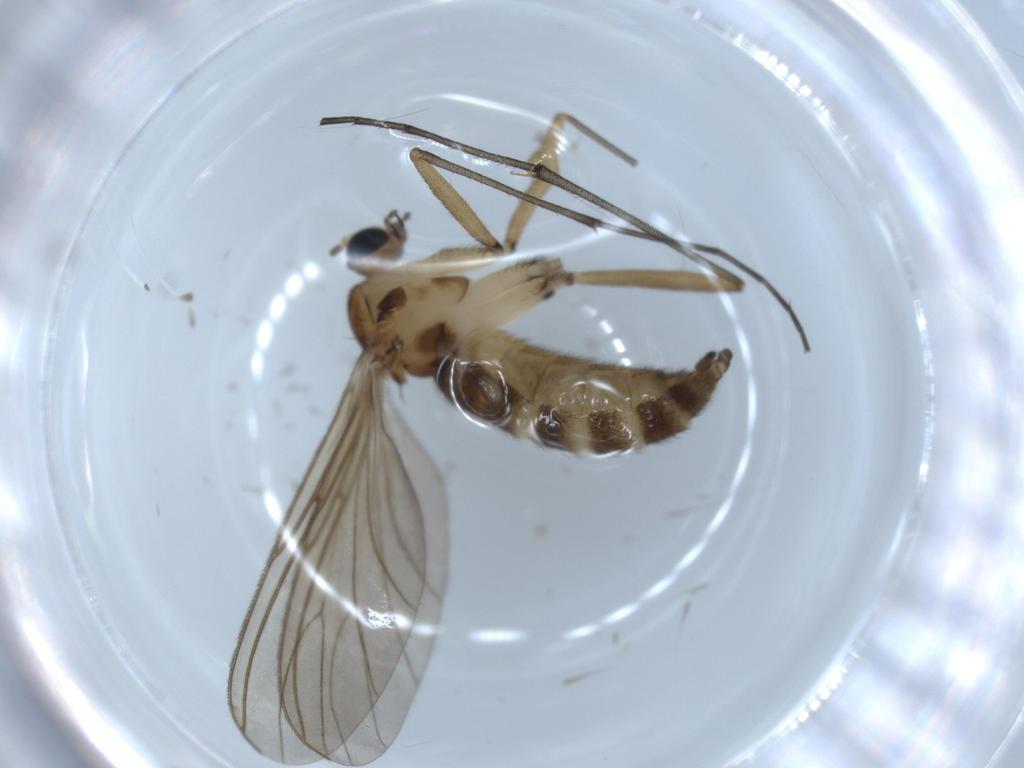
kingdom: Animalia
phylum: Arthropoda
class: Insecta
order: Diptera
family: Sciaridae
